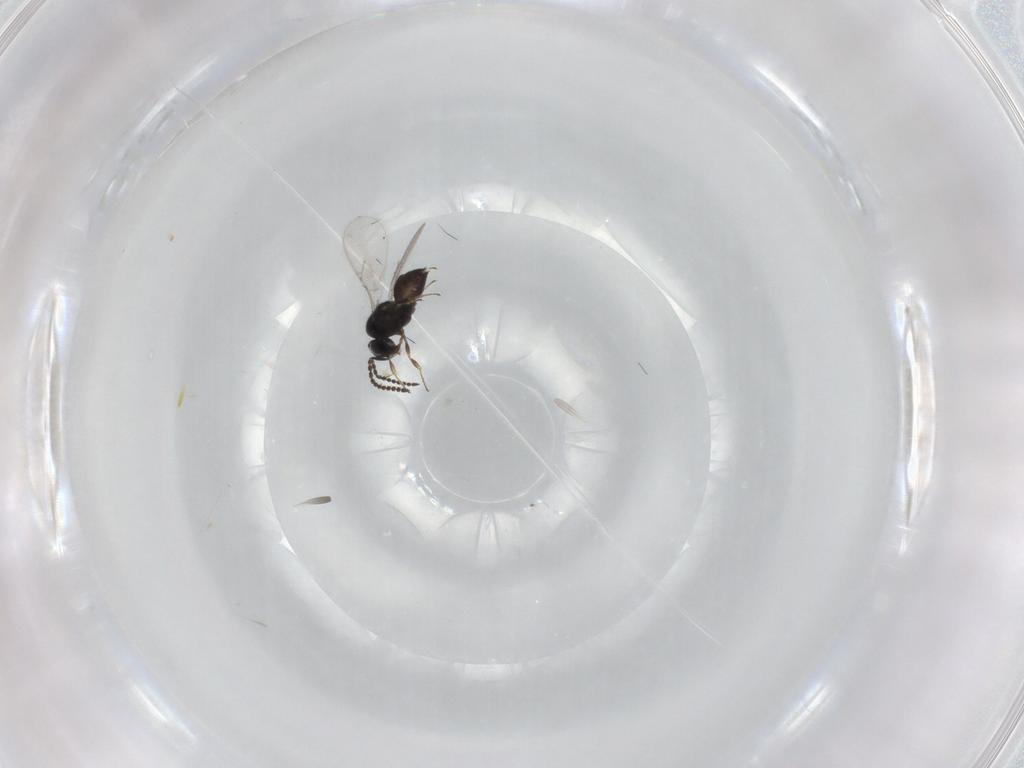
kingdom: Animalia
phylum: Arthropoda
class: Insecta
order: Hymenoptera
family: Scelionidae
